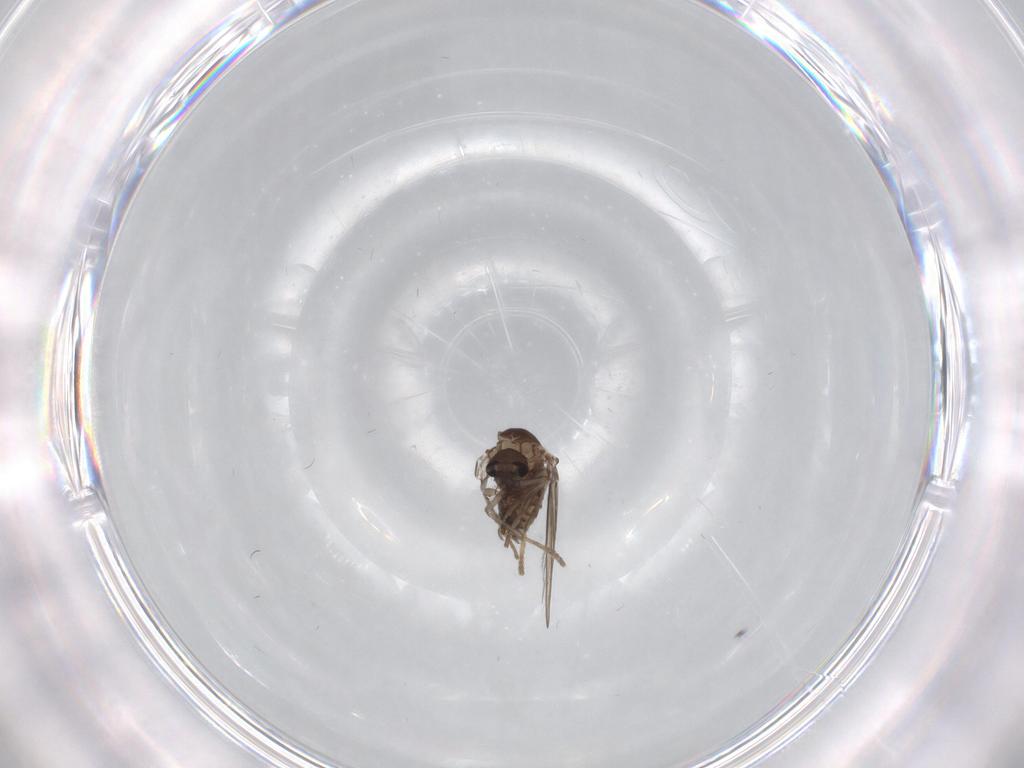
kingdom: Animalia
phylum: Arthropoda
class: Insecta
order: Diptera
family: Psychodidae
